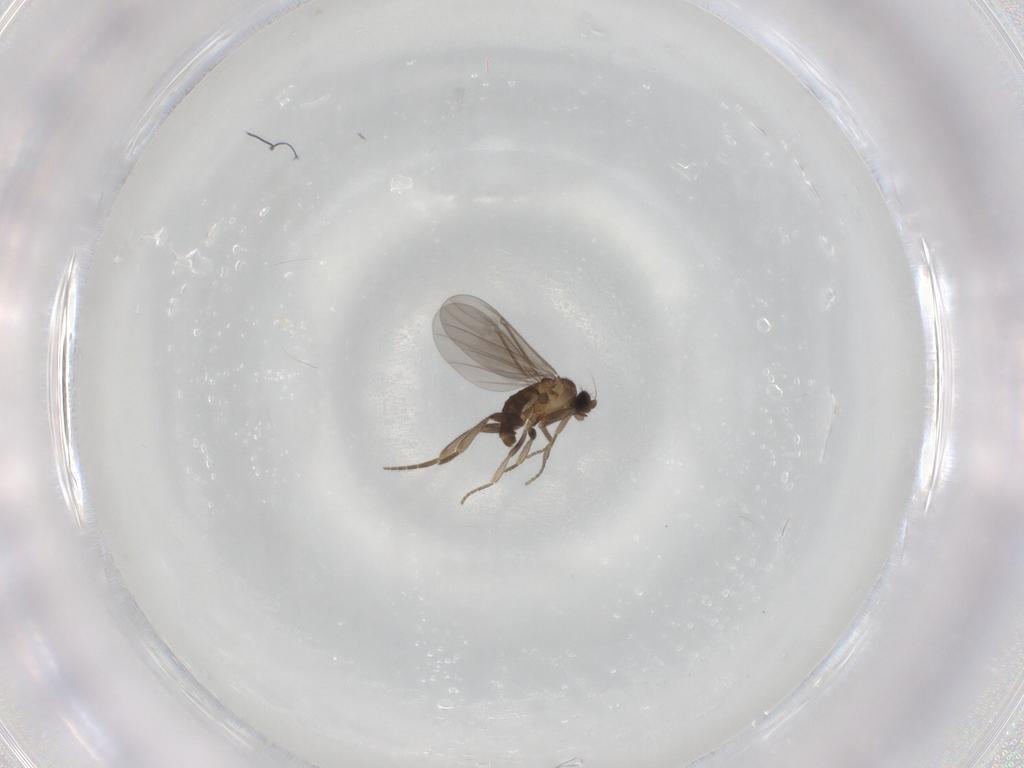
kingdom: Animalia
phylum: Arthropoda
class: Insecta
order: Diptera
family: Phoridae
